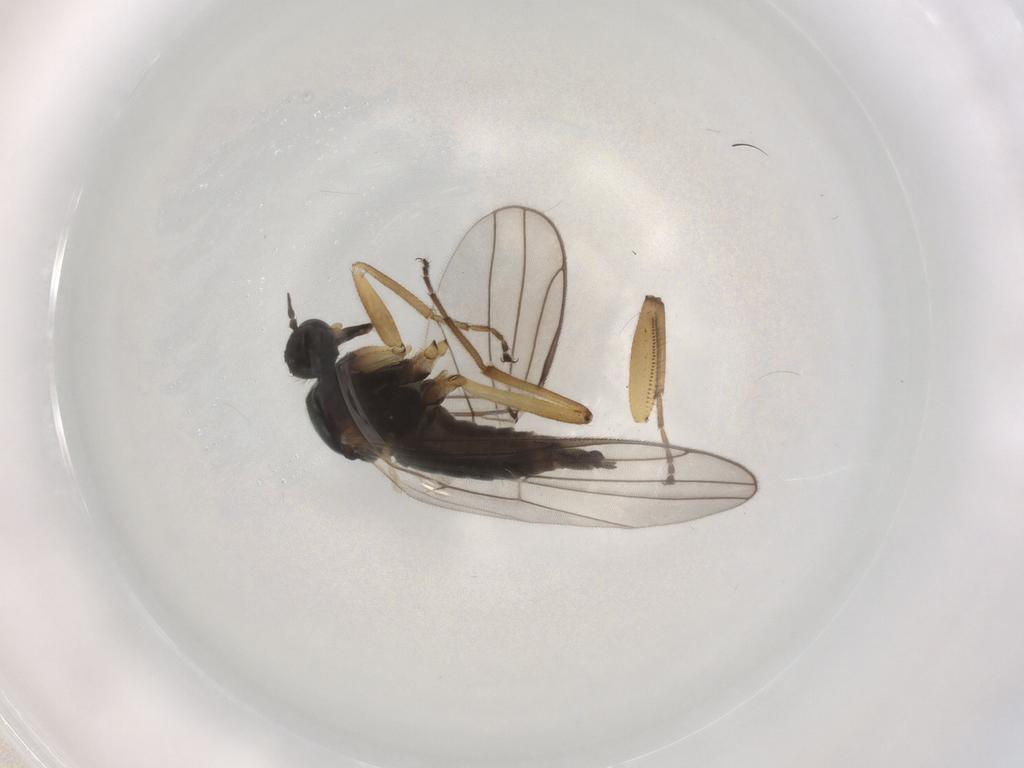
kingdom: Animalia
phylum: Arthropoda
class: Insecta
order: Diptera
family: Hybotidae
